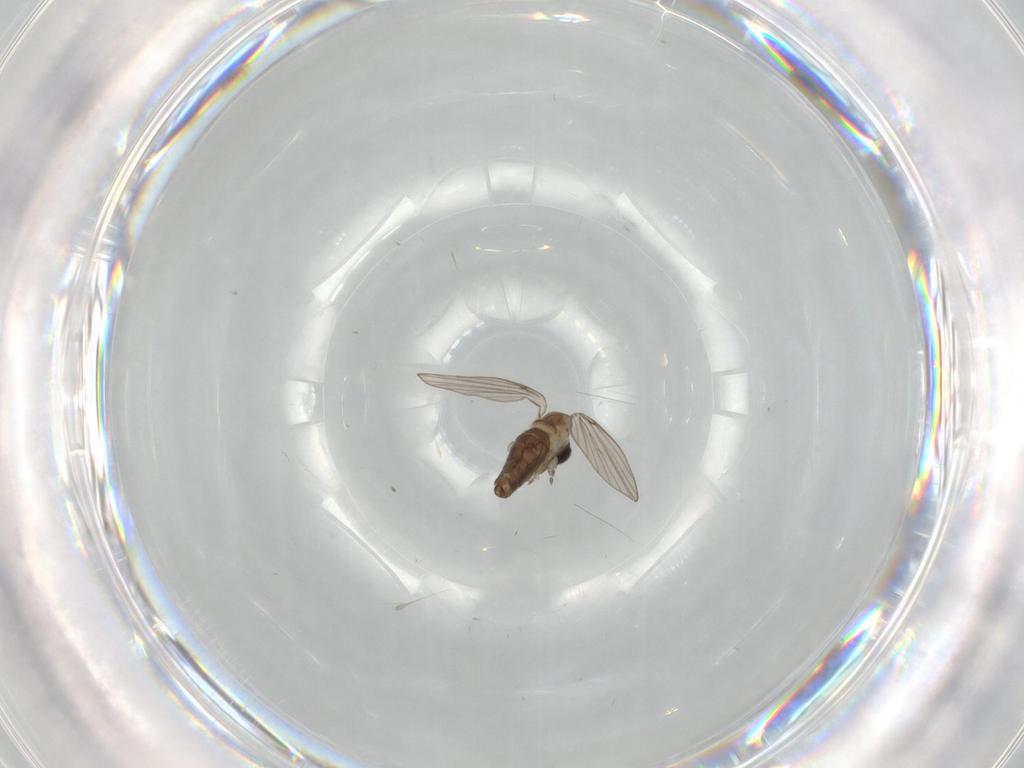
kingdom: Animalia
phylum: Arthropoda
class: Insecta
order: Diptera
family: Psychodidae
